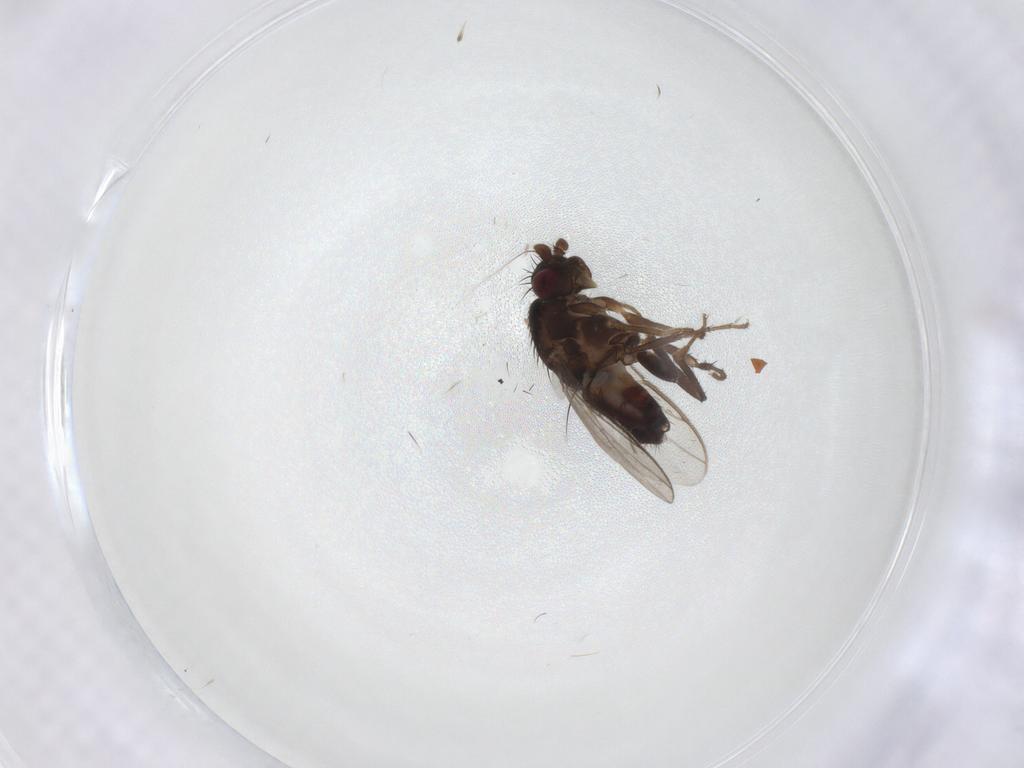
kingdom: Animalia
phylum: Arthropoda
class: Insecta
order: Diptera
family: Sphaeroceridae
